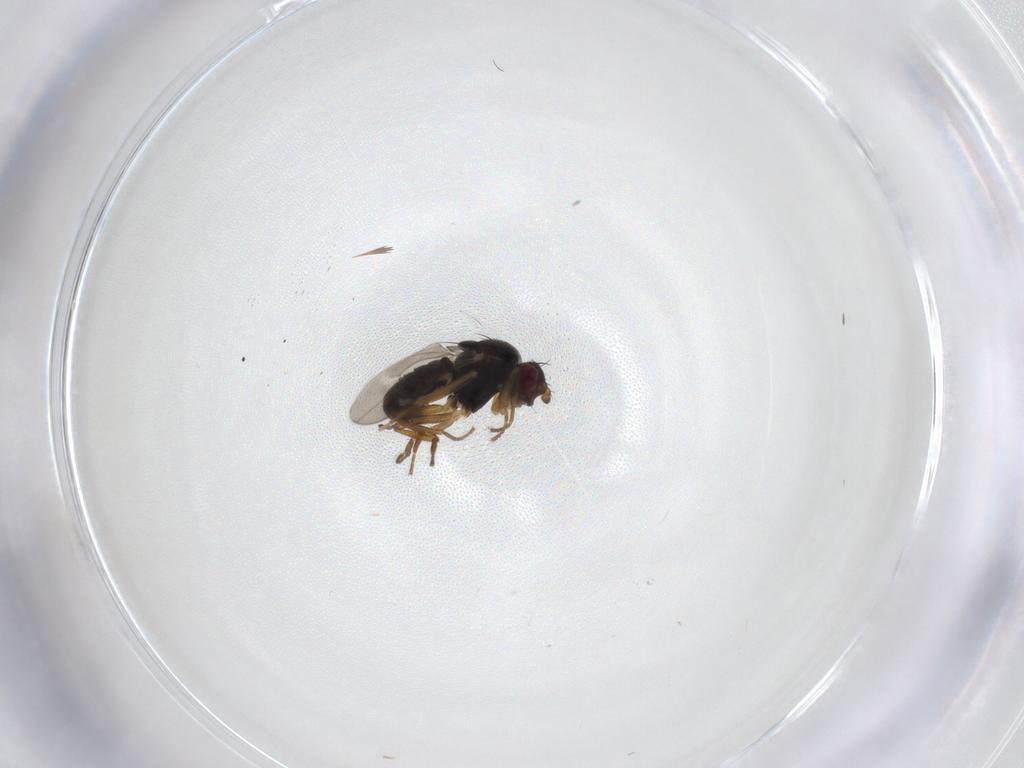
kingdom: Animalia
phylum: Arthropoda
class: Insecta
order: Diptera
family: Sphaeroceridae
